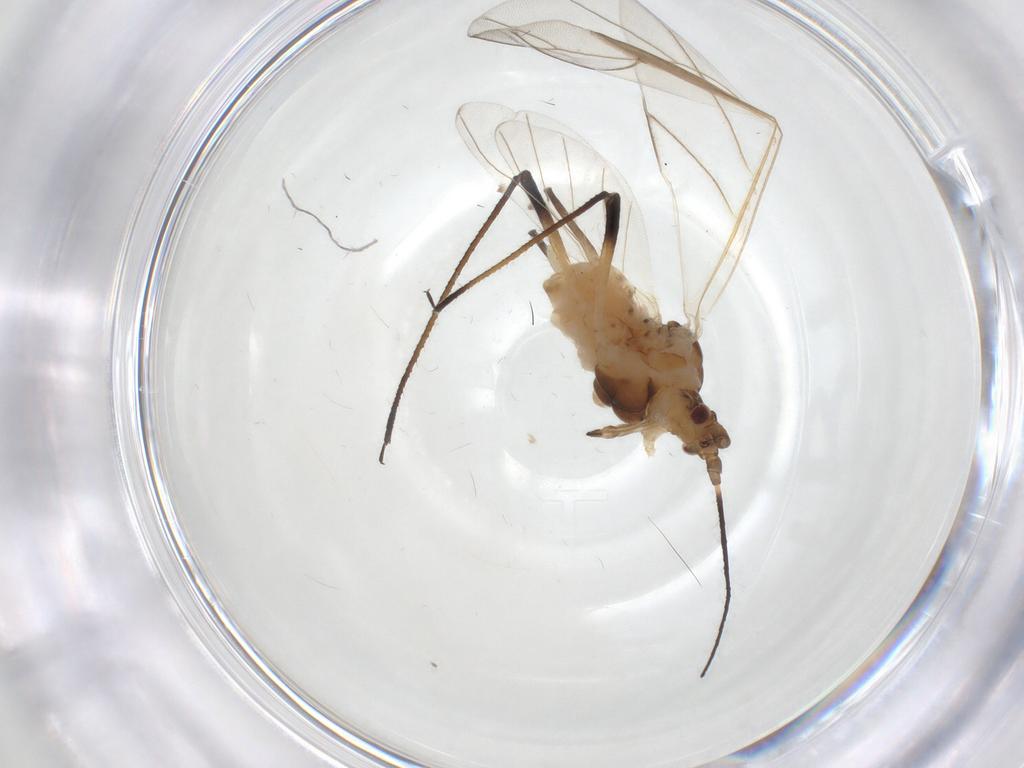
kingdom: Animalia
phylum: Arthropoda
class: Insecta
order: Hemiptera
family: Aphididae
